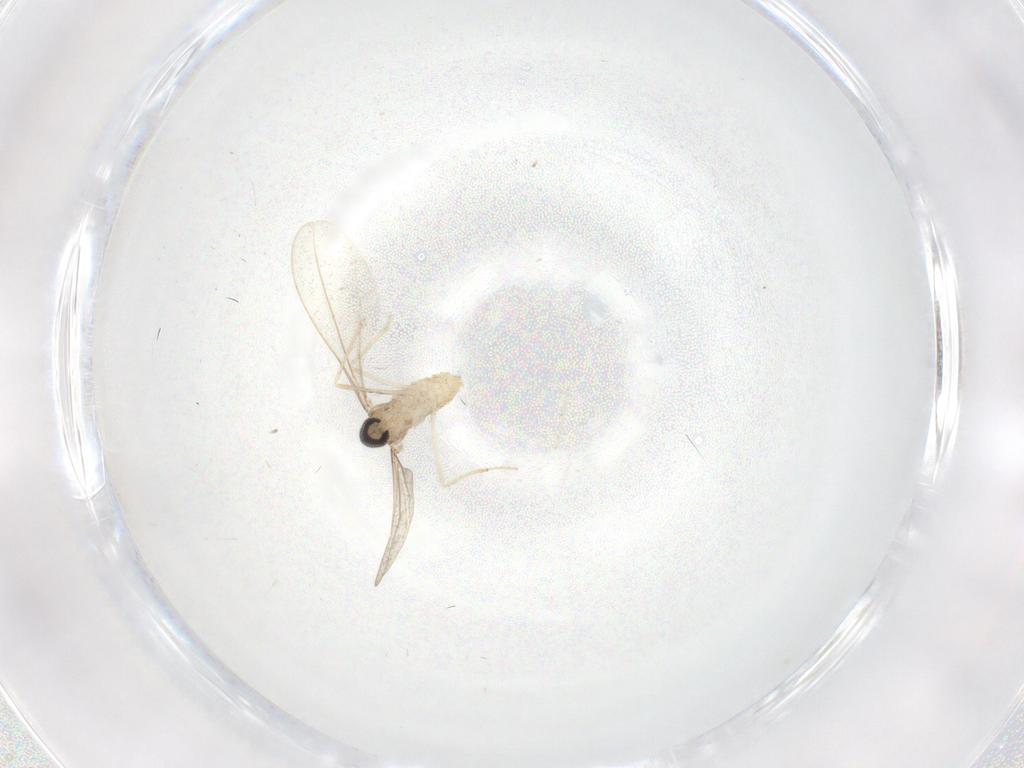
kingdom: Animalia
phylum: Arthropoda
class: Insecta
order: Diptera
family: Cecidomyiidae
